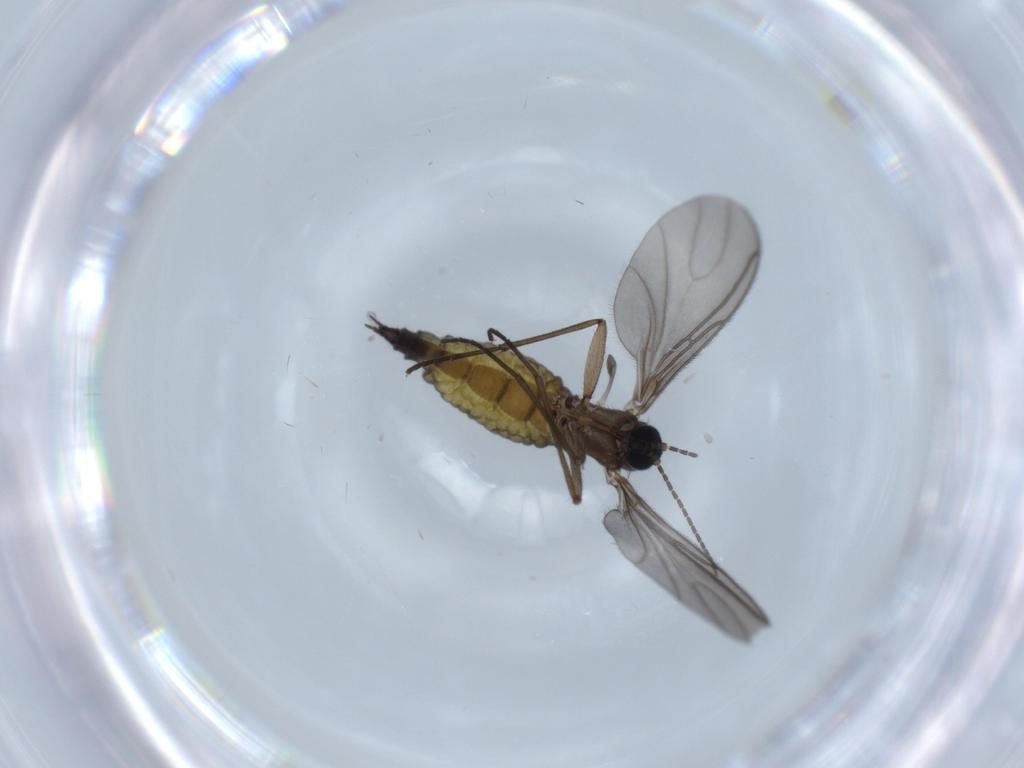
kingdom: Animalia
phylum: Arthropoda
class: Insecta
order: Diptera
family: Sciaridae
